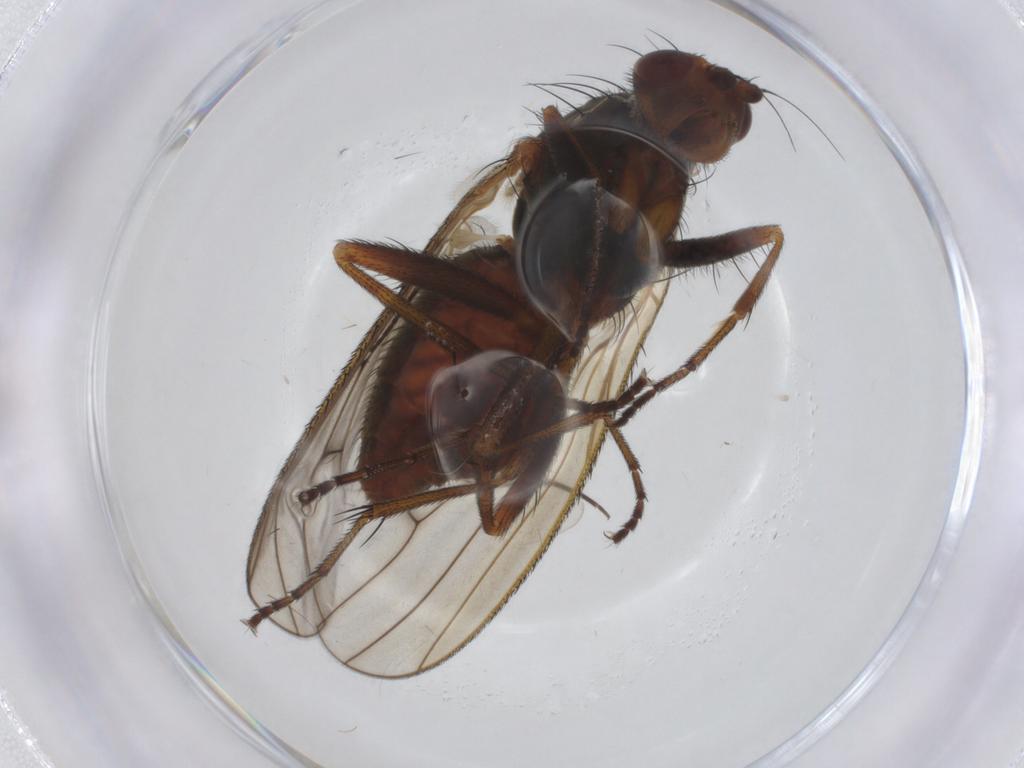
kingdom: Animalia
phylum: Arthropoda
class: Insecta
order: Diptera
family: Heleomyzidae
